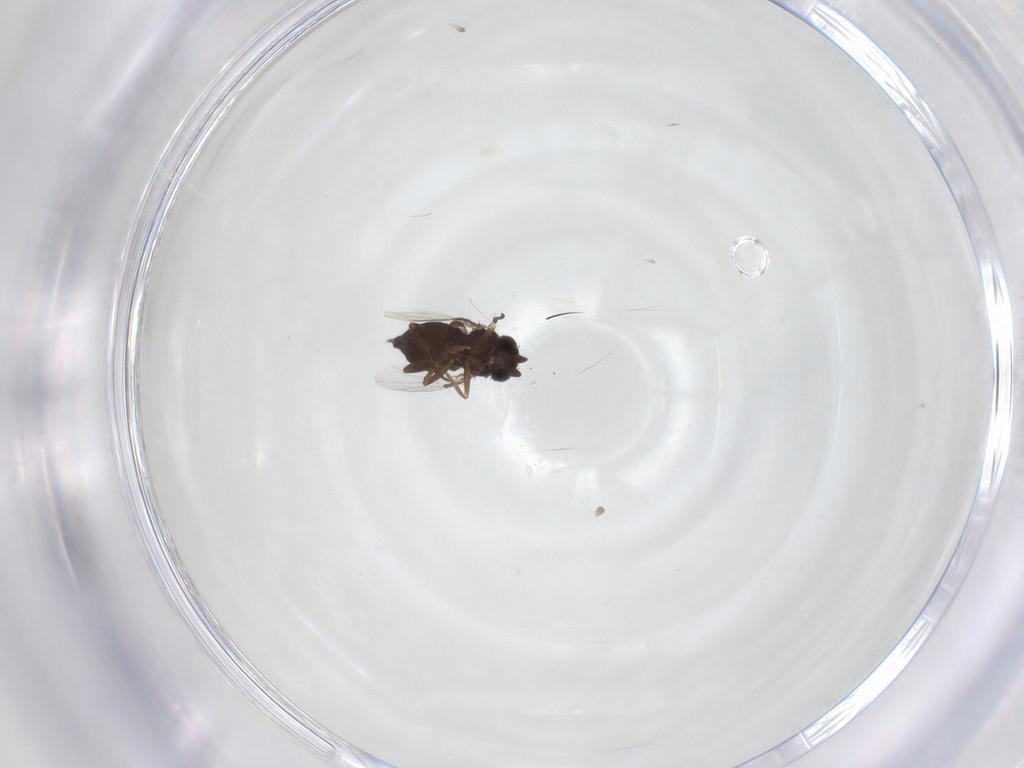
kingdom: Animalia
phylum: Arthropoda
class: Insecta
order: Diptera
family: Phoridae
